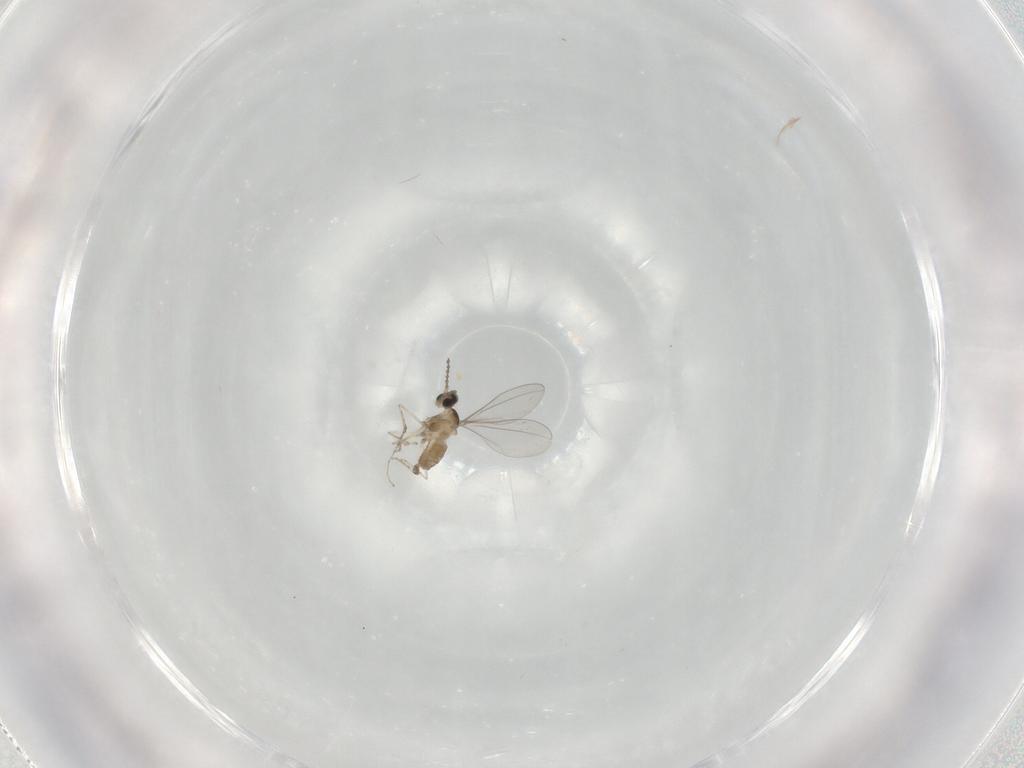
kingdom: Animalia
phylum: Arthropoda
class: Insecta
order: Diptera
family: Cecidomyiidae
